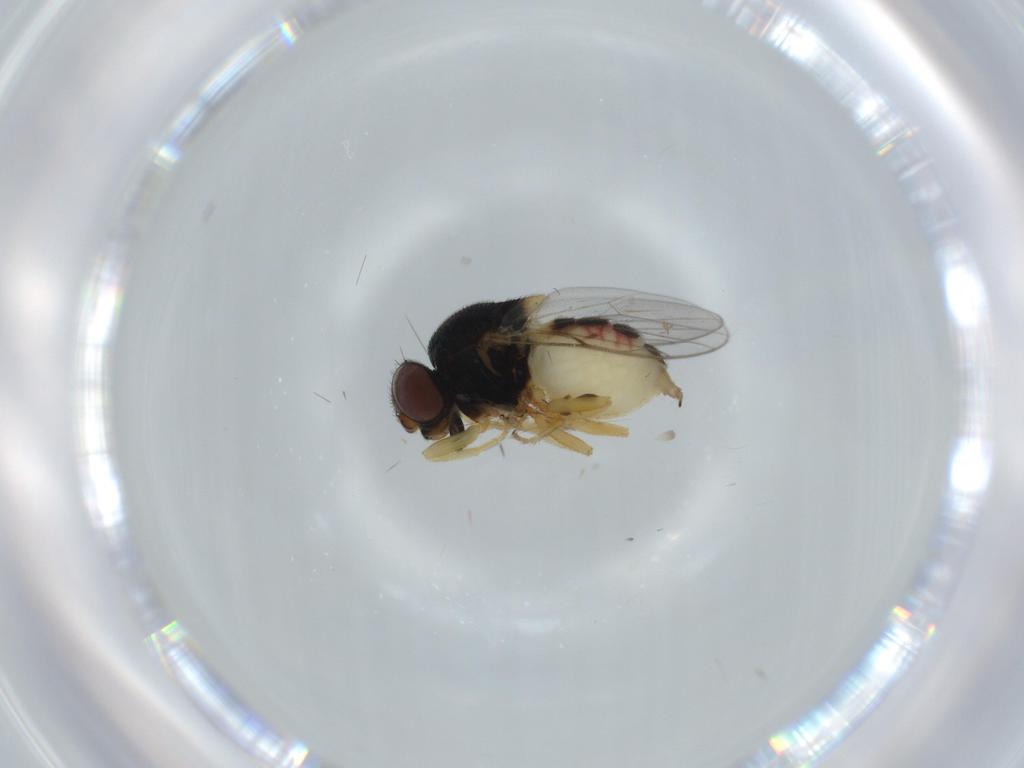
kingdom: Animalia
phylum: Arthropoda
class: Insecta
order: Diptera
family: Chloropidae
